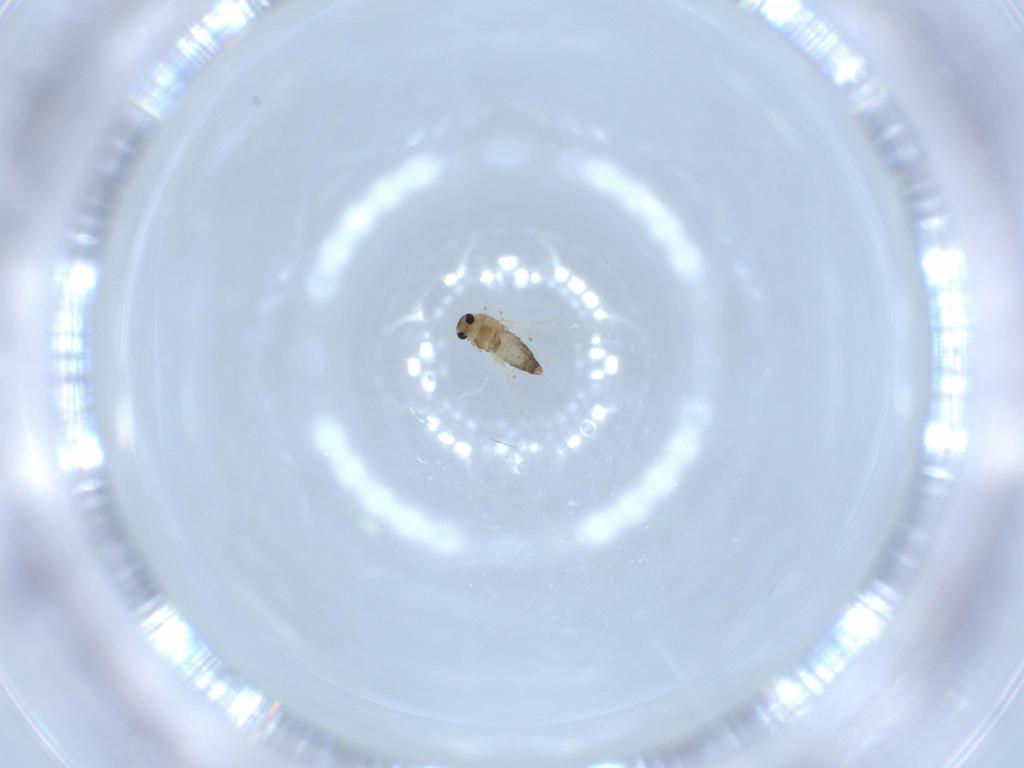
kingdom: Animalia
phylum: Arthropoda
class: Insecta
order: Diptera
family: Chironomidae
